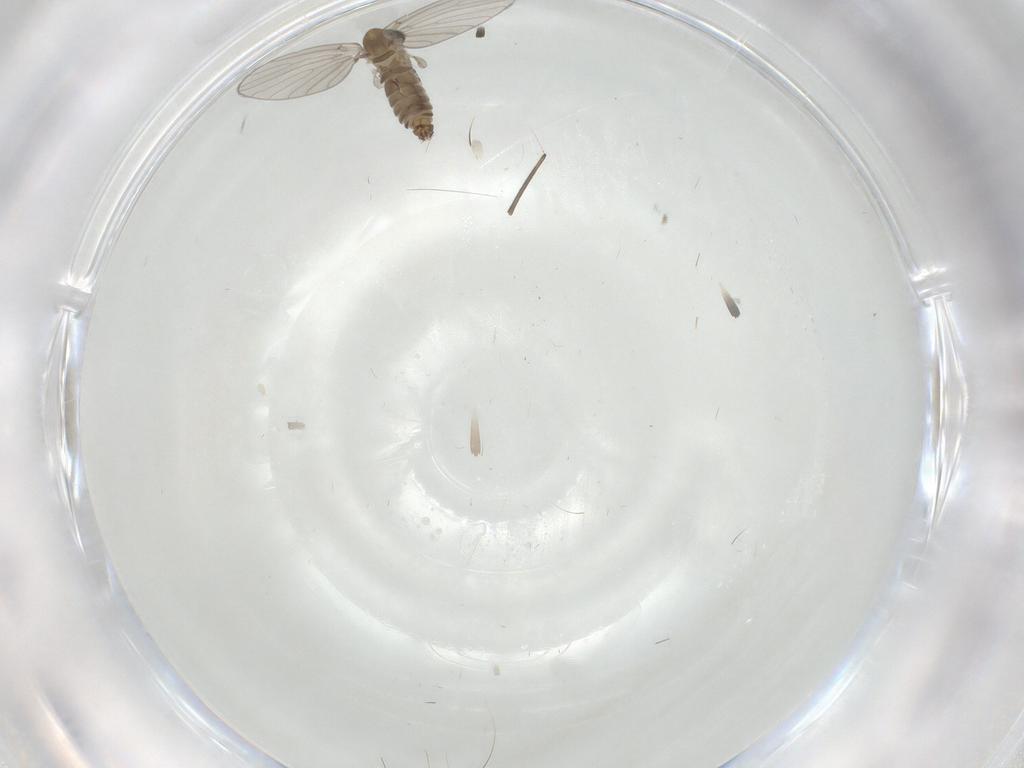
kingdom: Animalia
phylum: Arthropoda
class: Insecta
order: Diptera
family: Sciaridae
